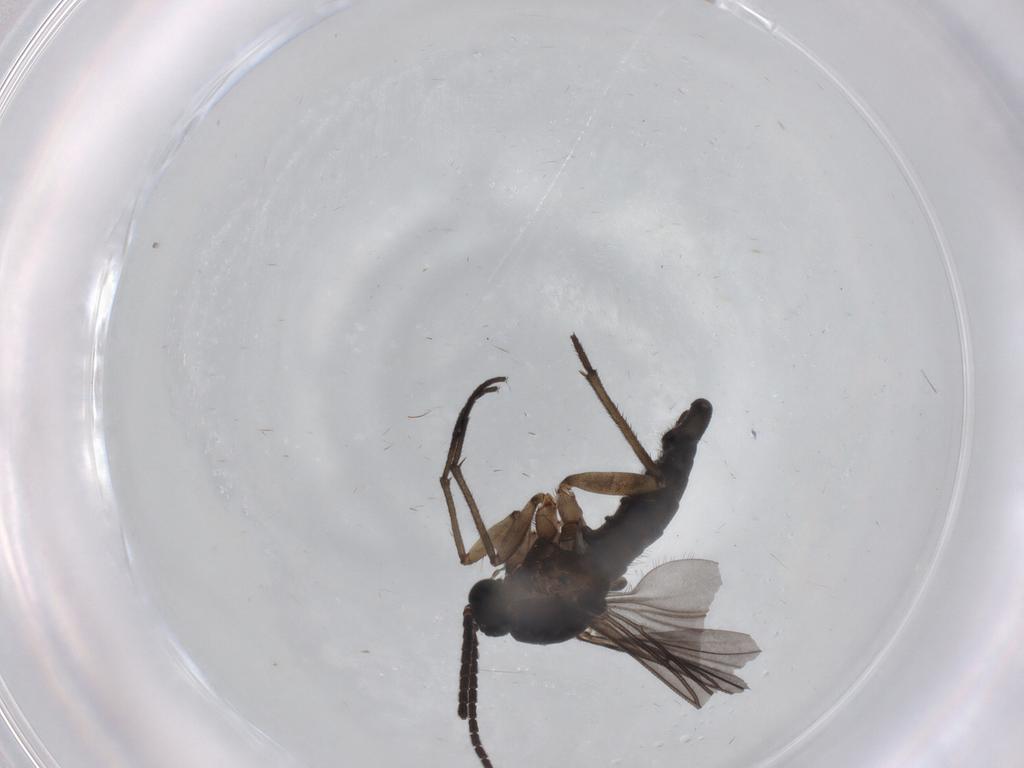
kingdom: Animalia
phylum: Arthropoda
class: Insecta
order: Diptera
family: Sciaridae
